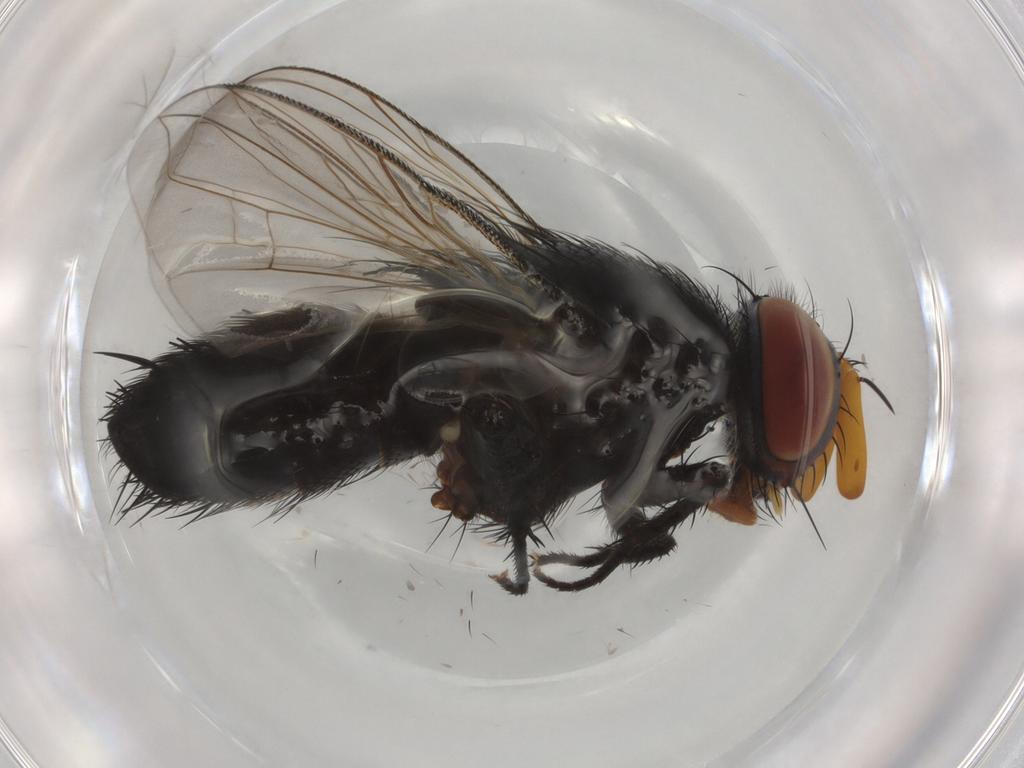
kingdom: Animalia
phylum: Arthropoda
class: Insecta
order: Diptera
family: Tachinidae
